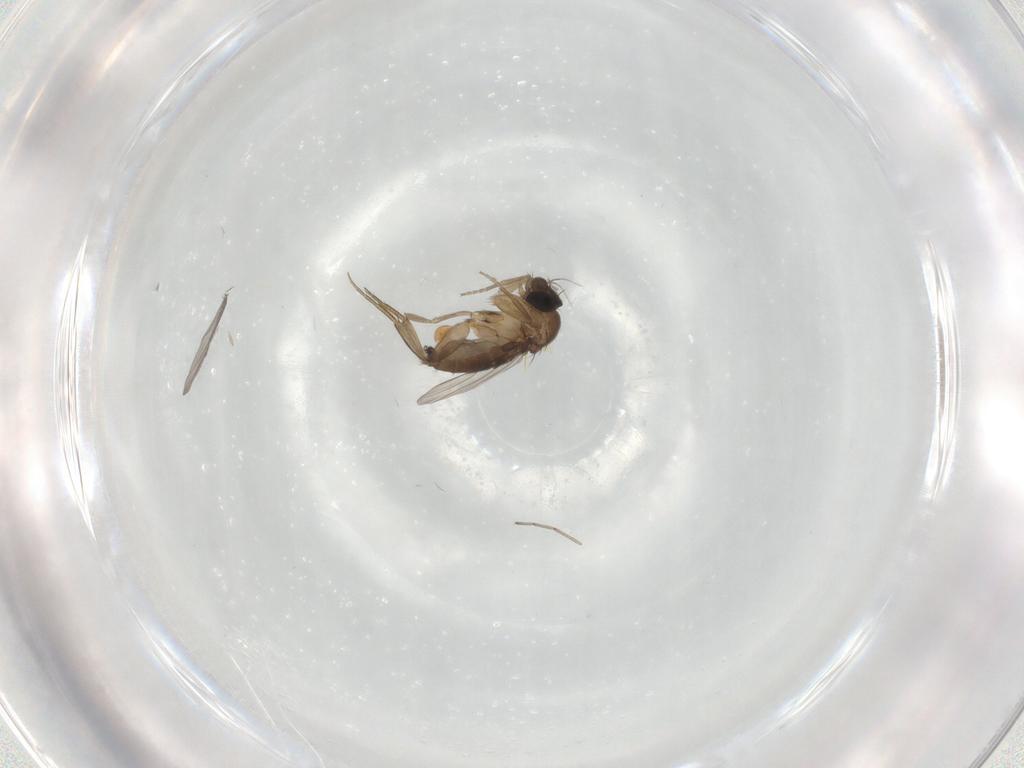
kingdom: Animalia
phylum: Arthropoda
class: Insecta
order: Diptera
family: Phoridae
